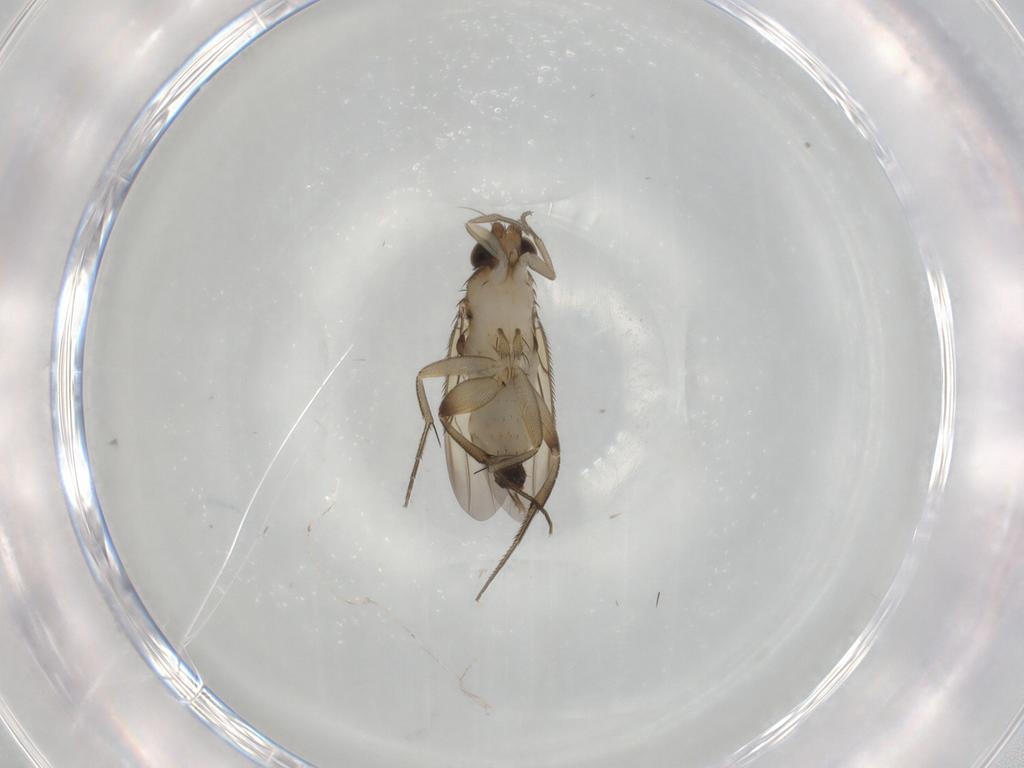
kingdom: Animalia
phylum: Arthropoda
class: Insecta
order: Diptera
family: Phoridae
